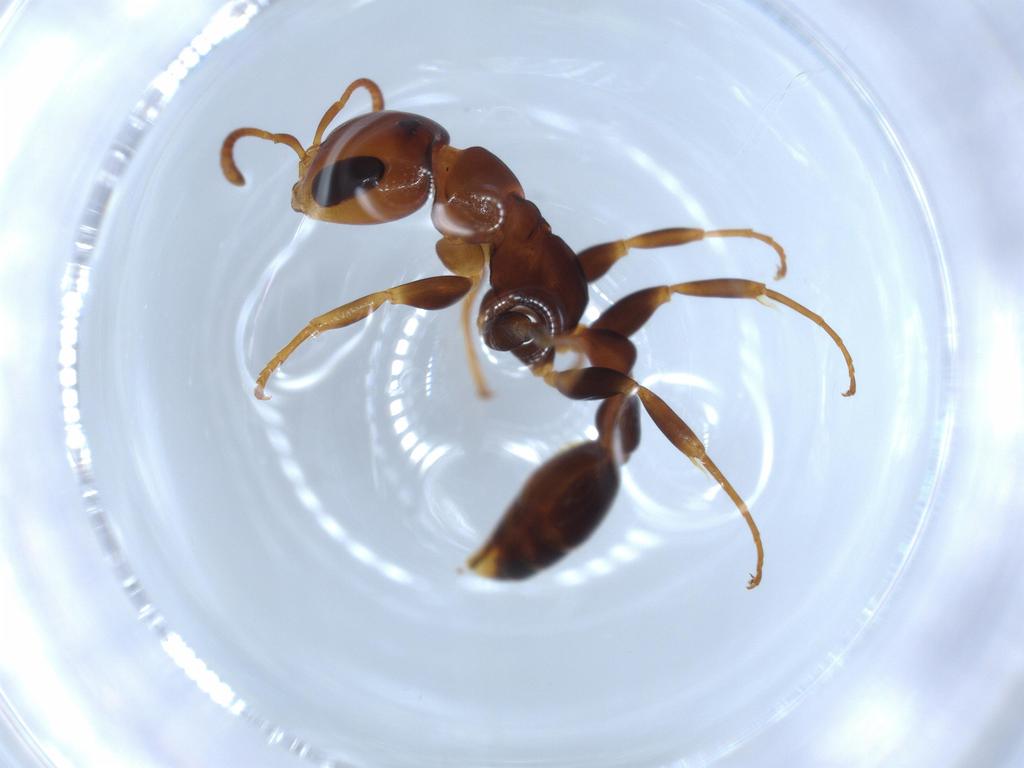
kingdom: Animalia
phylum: Arthropoda
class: Insecta
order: Hymenoptera
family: Formicidae
